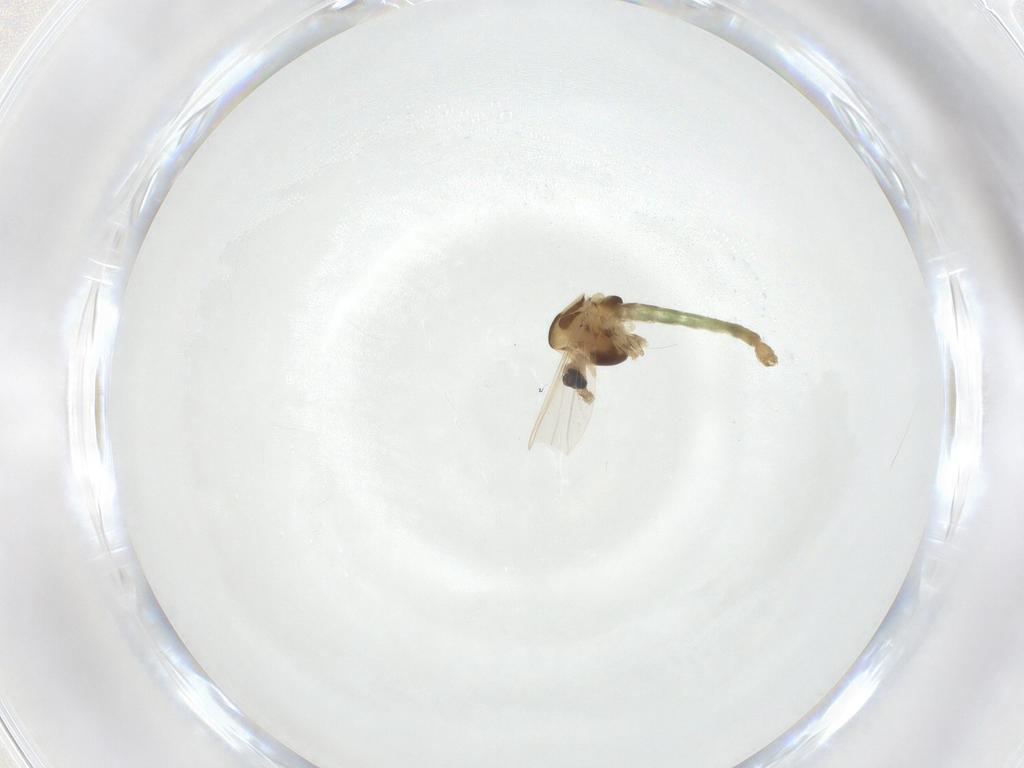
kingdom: Animalia
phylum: Arthropoda
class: Insecta
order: Diptera
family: Chironomidae
